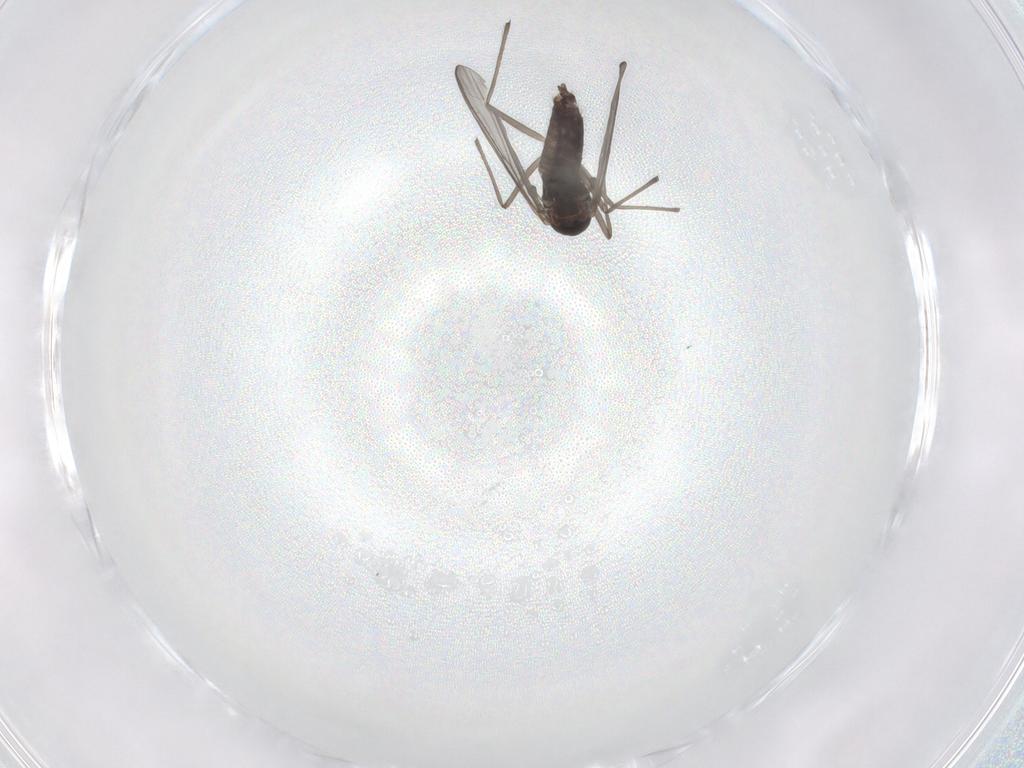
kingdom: Animalia
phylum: Arthropoda
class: Insecta
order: Diptera
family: Chironomidae
